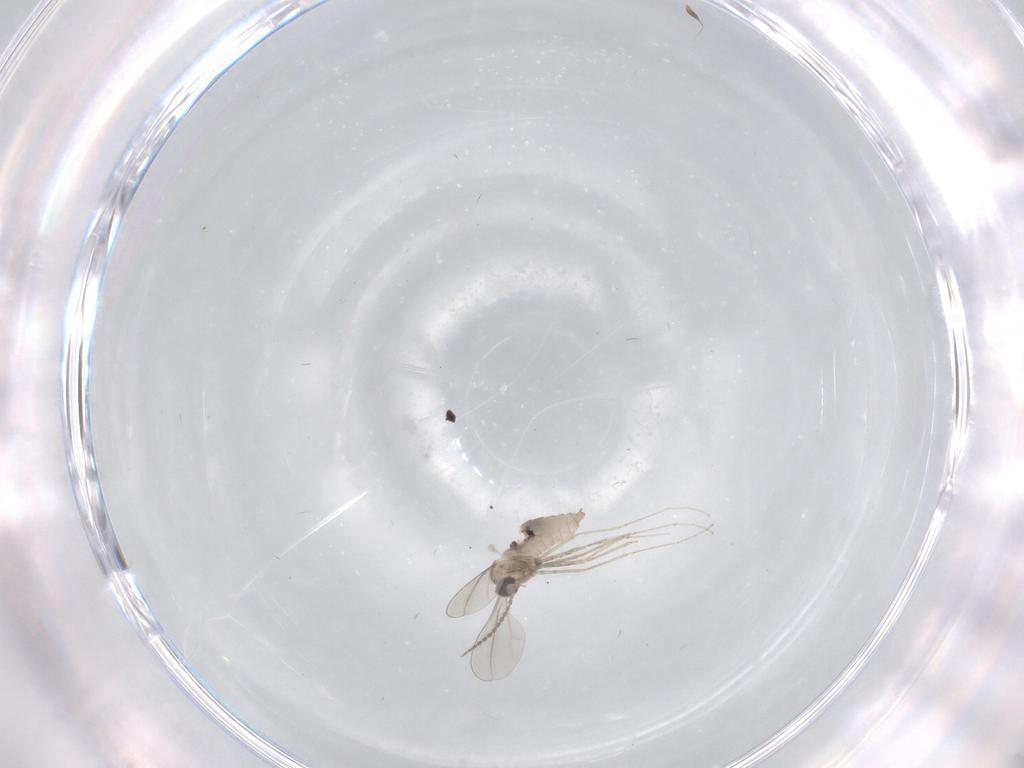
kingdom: Animalia
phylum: Arthropoda
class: Insecta
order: Diptera
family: Cecidomyiidae
